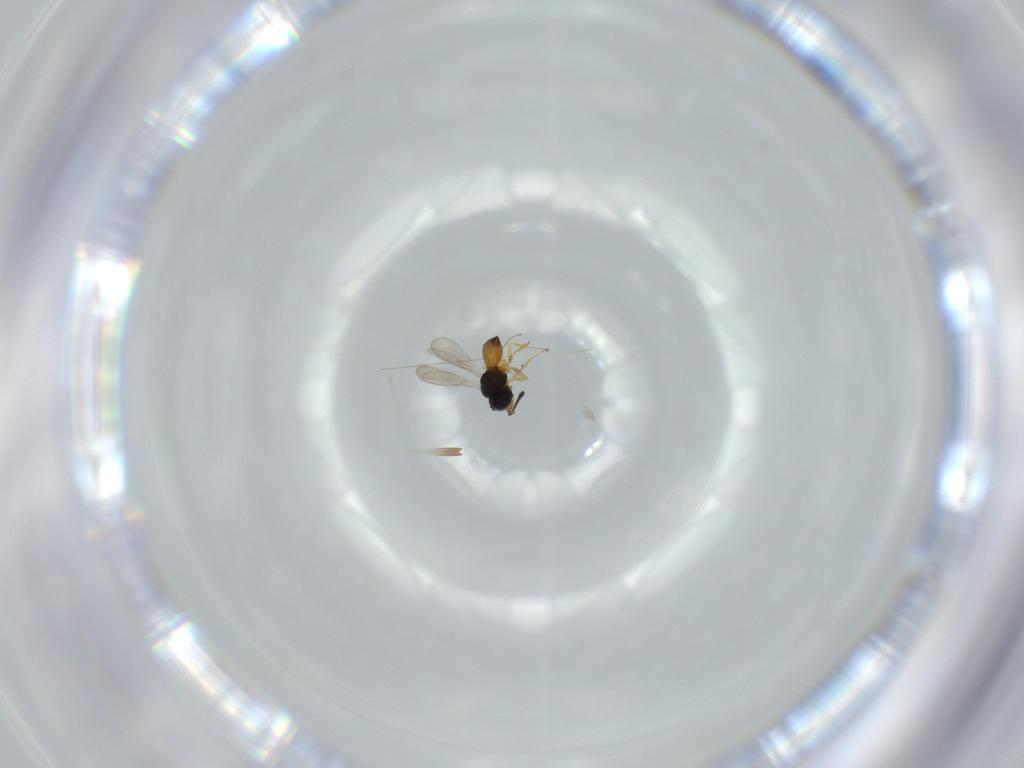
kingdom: Animalia
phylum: Arthropoda
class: Insecta
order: Hymenoptera
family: Scelionidae
